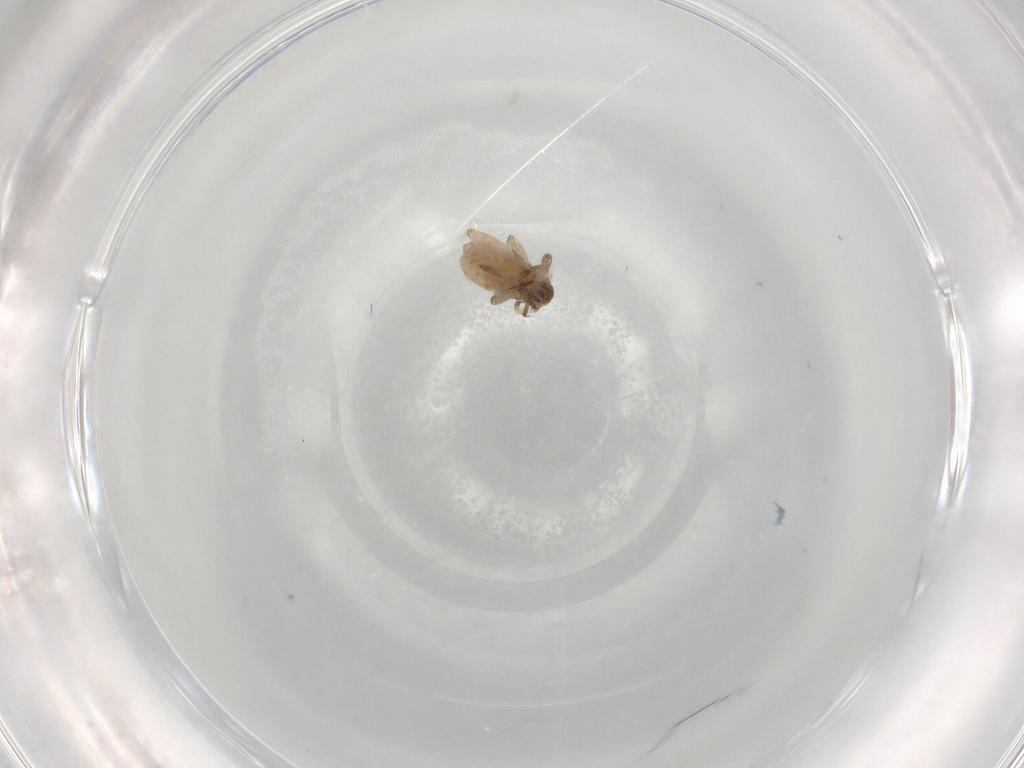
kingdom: Animalia
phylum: Arthropoda
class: Insecta
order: Hemiptera
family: Aphididae
